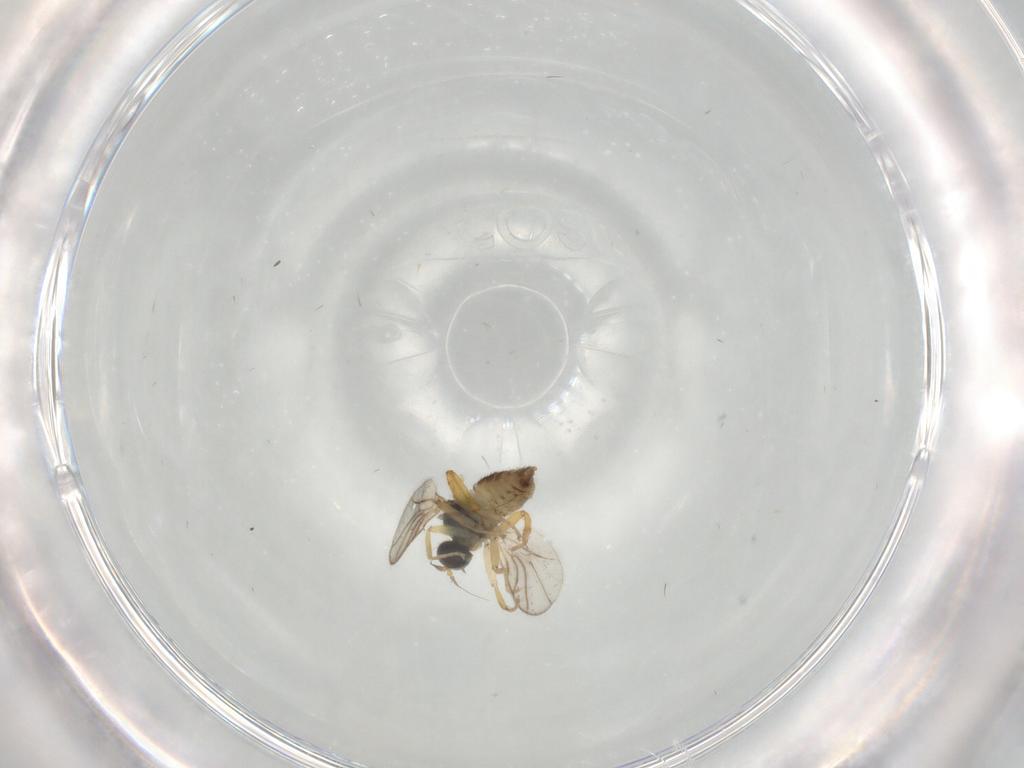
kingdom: Animalia
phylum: Arthropoda
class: Insecta
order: Diptera
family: Hybotidae
